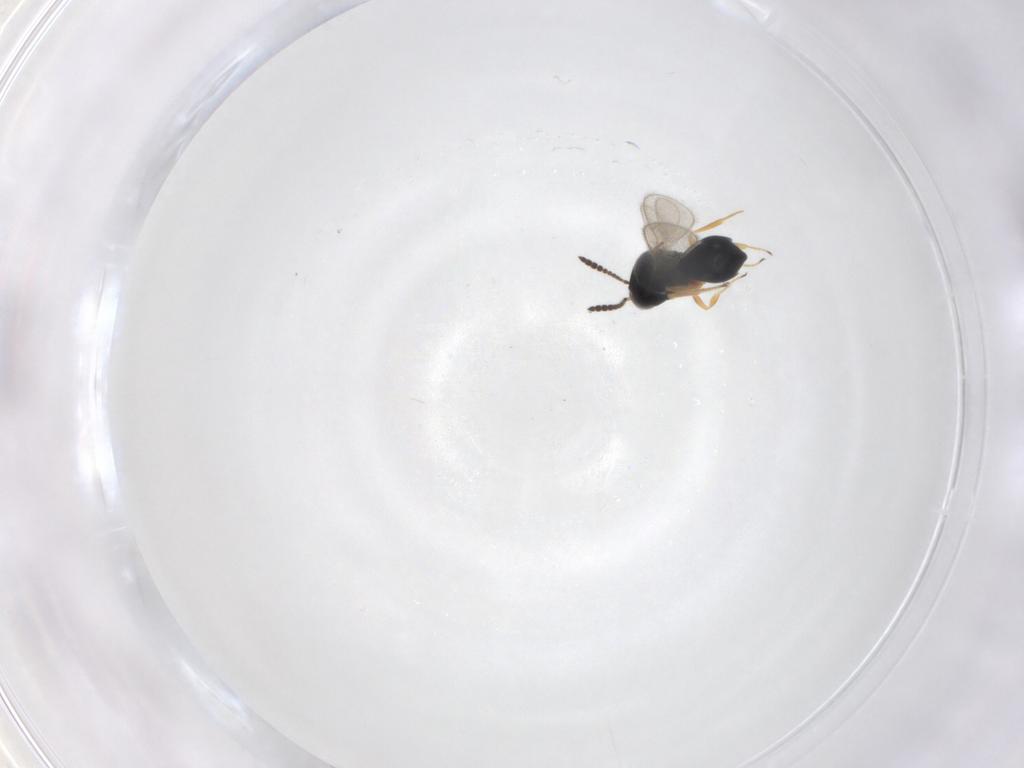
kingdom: Animalia
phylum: Arthropoda
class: Insecta
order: Hymenoptera
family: Scelionidae
